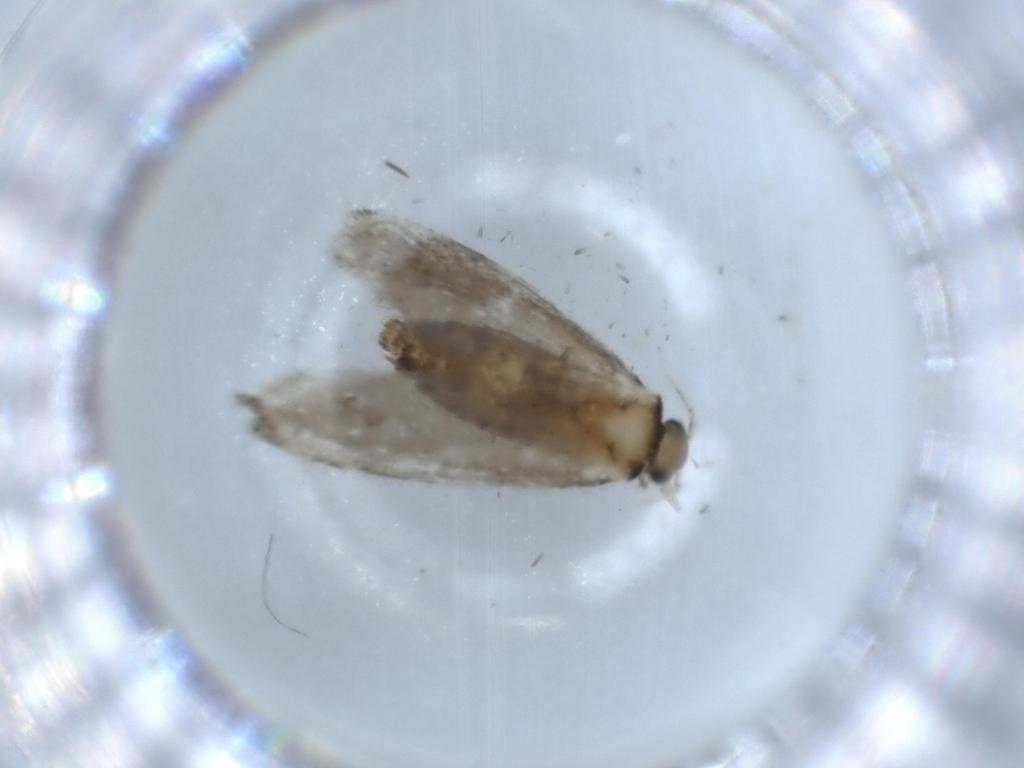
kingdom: Animalia
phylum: Arthropoda
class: Insecta
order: Lepidoptera
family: Tineidae
